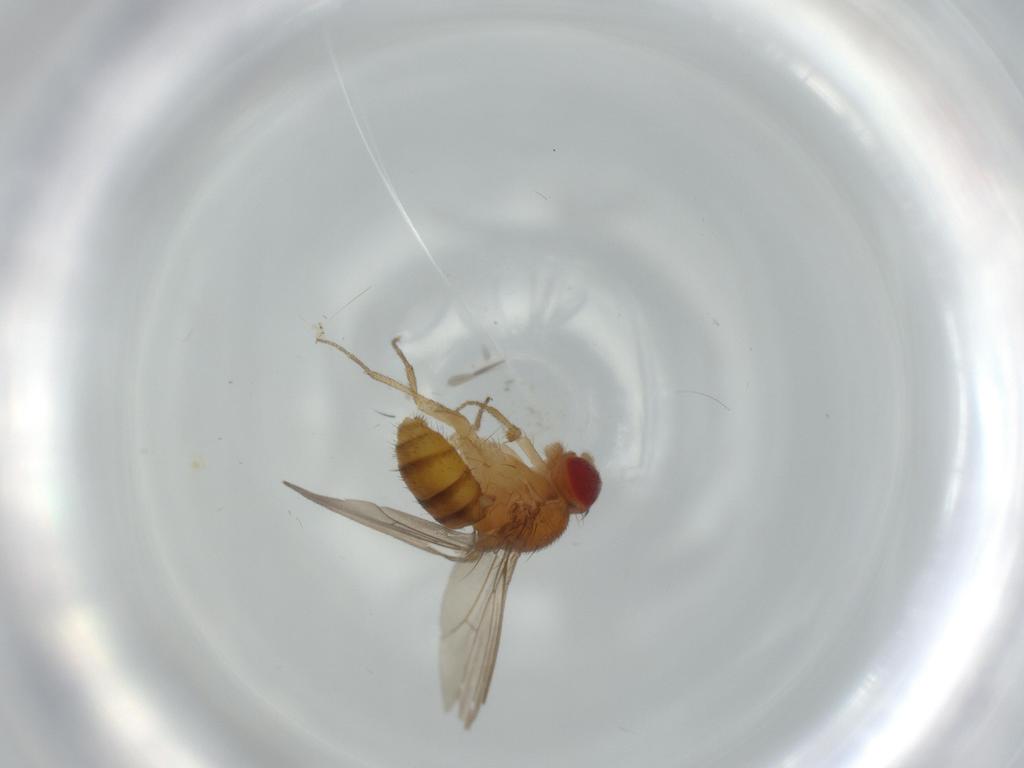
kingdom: Animalia
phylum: Arthropoda
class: Insecta
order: Diptera
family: Drosophilidae
